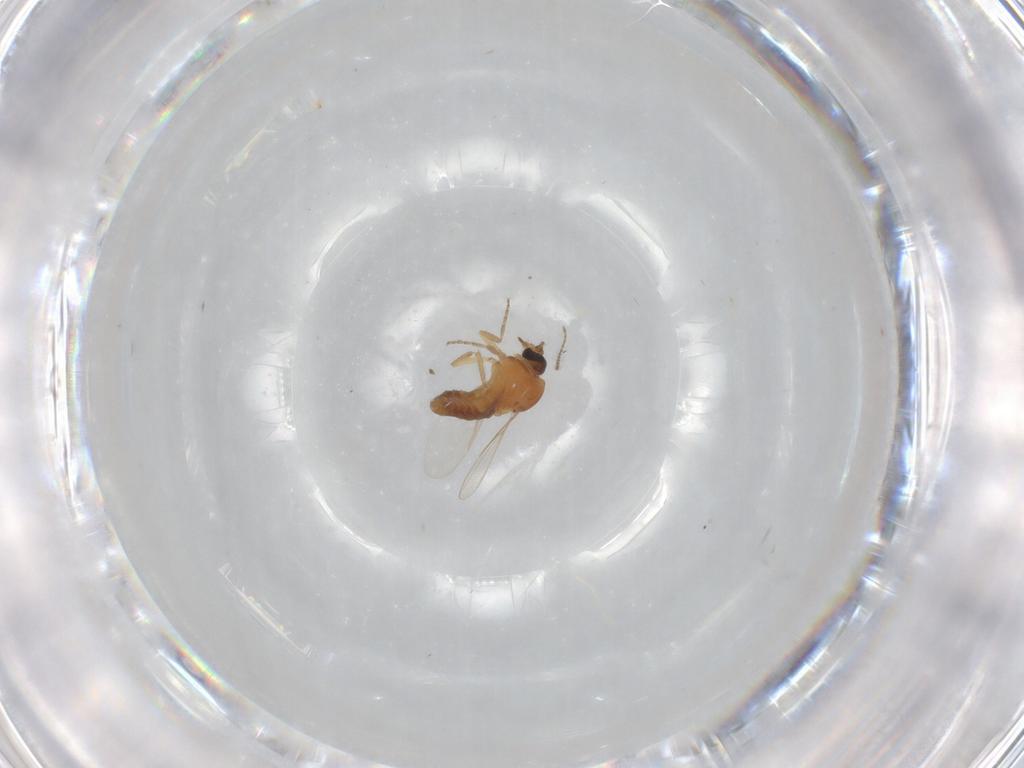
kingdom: Animalia
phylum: Arthropoda
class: Insecta
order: Diptera
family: Ceratopogonidae
